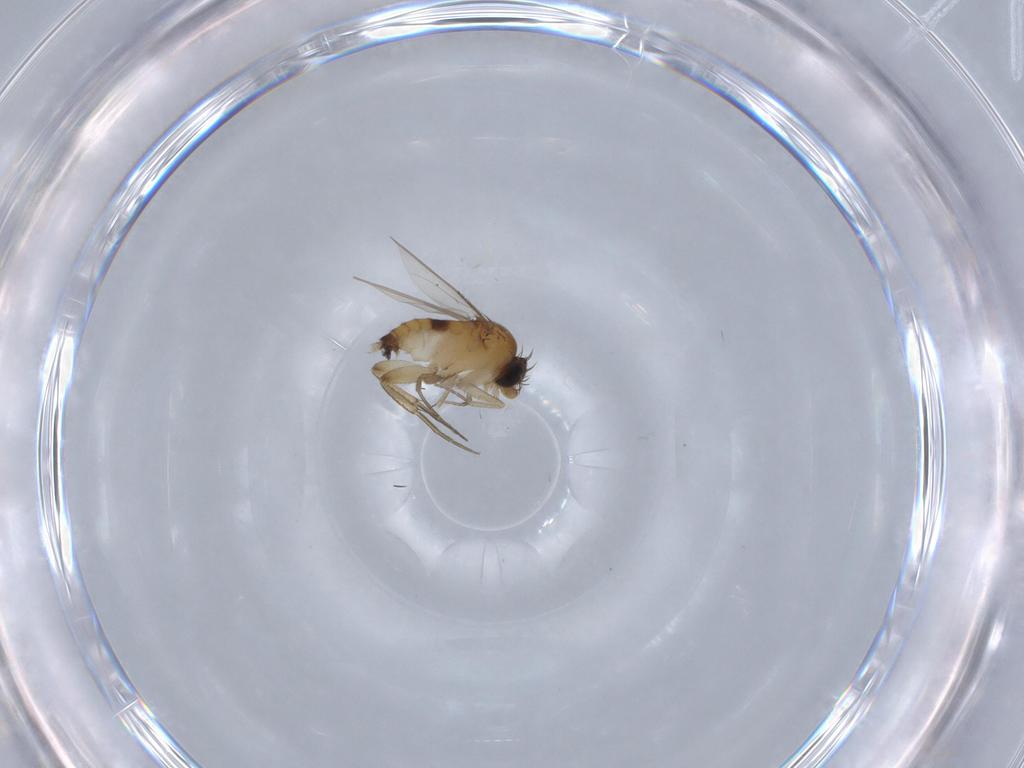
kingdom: Animalia
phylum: Arthropoda
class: Insecta
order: Diptera
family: Phoridae
